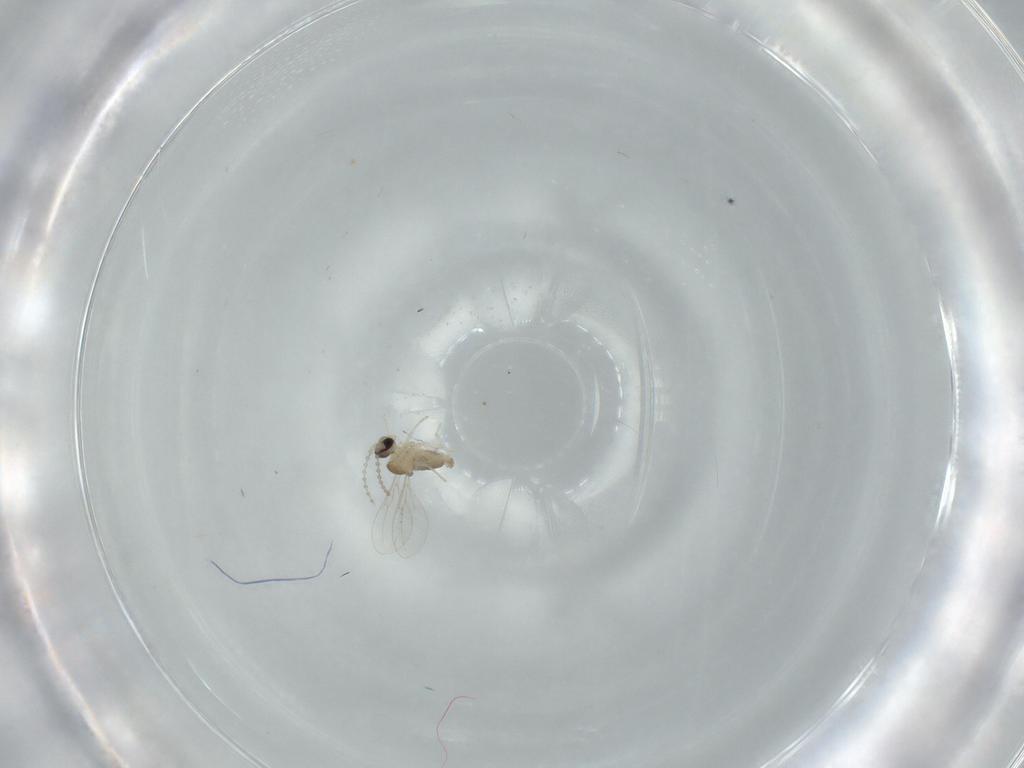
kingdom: Animalia
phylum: Arthropoda
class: Insecta
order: Diptera
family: Cecidomyiidae
